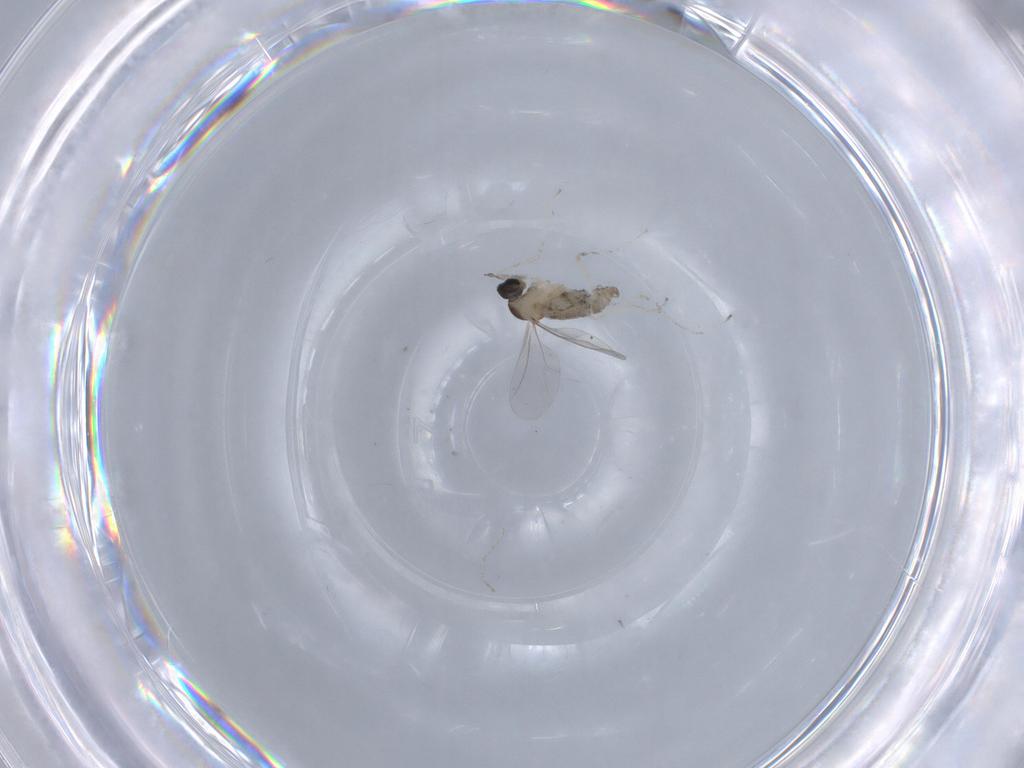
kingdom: Animalia
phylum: Arthropoda
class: Insecta
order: Diptera
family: Cecidomyiidae
